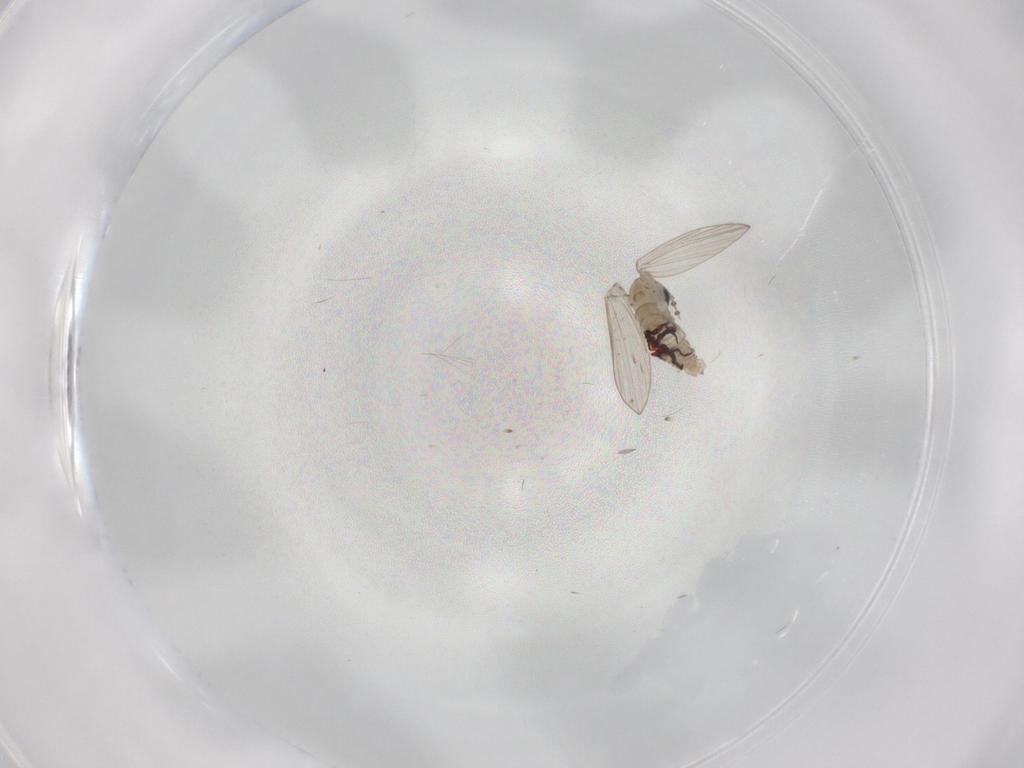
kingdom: Animalia
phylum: Arthropoda
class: Insecta
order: Diptera
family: Psychodidae
